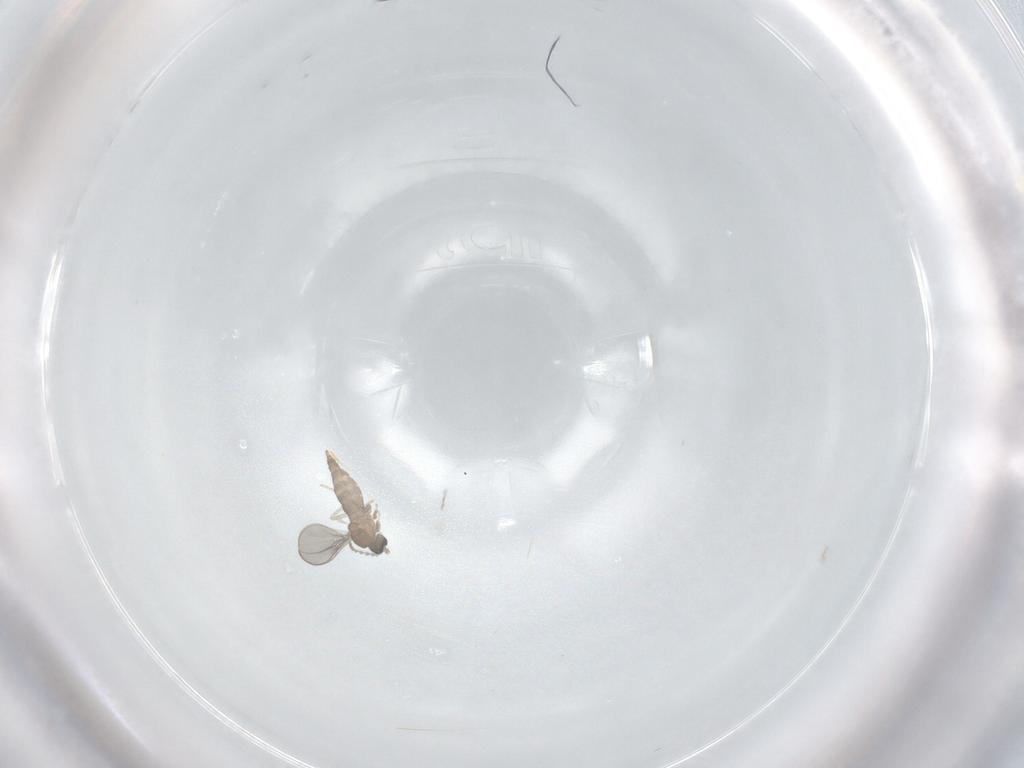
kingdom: Animalia
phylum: Arthropoda
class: Insecta
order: Diptera
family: Cecidomyiidae
